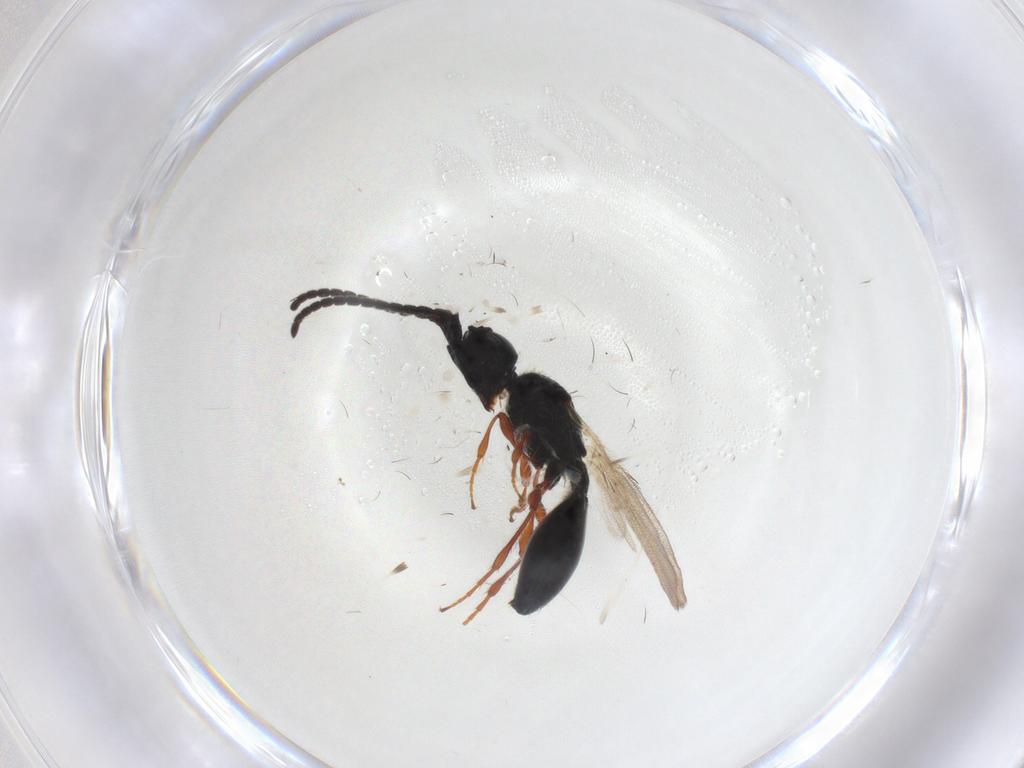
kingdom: Animalia
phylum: Arthropoda
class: Insecta
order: Hymenoptera
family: Diapriidae
